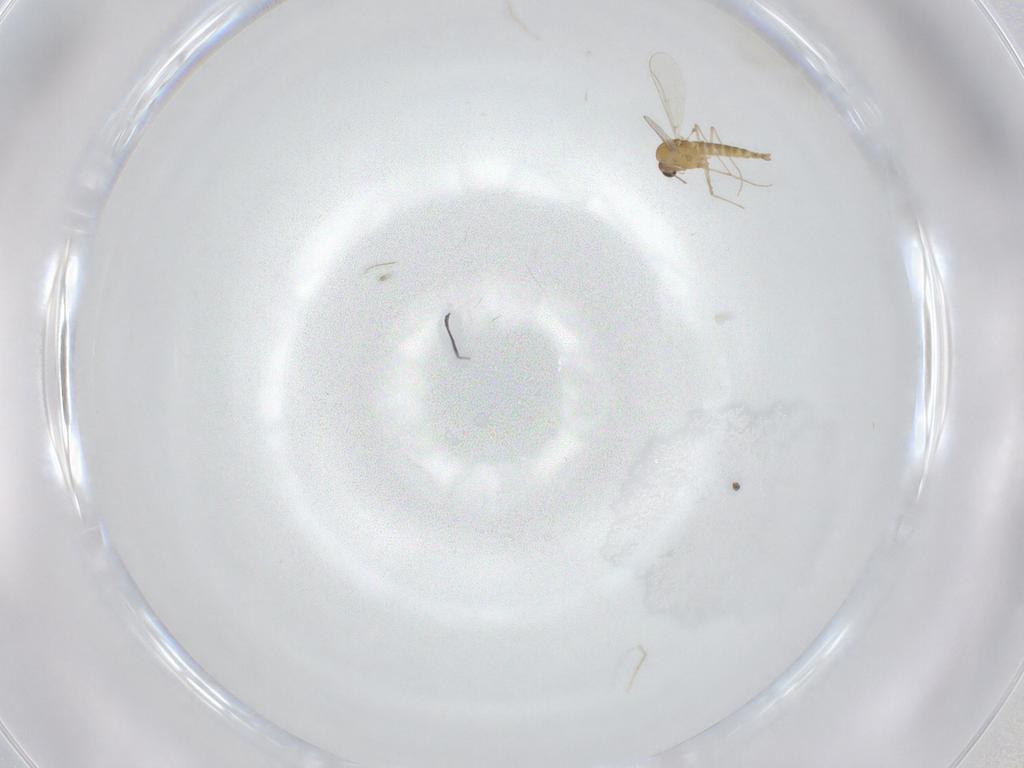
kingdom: Animalia
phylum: Arthropoda
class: Insecta
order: Diptera
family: Chironomidae
